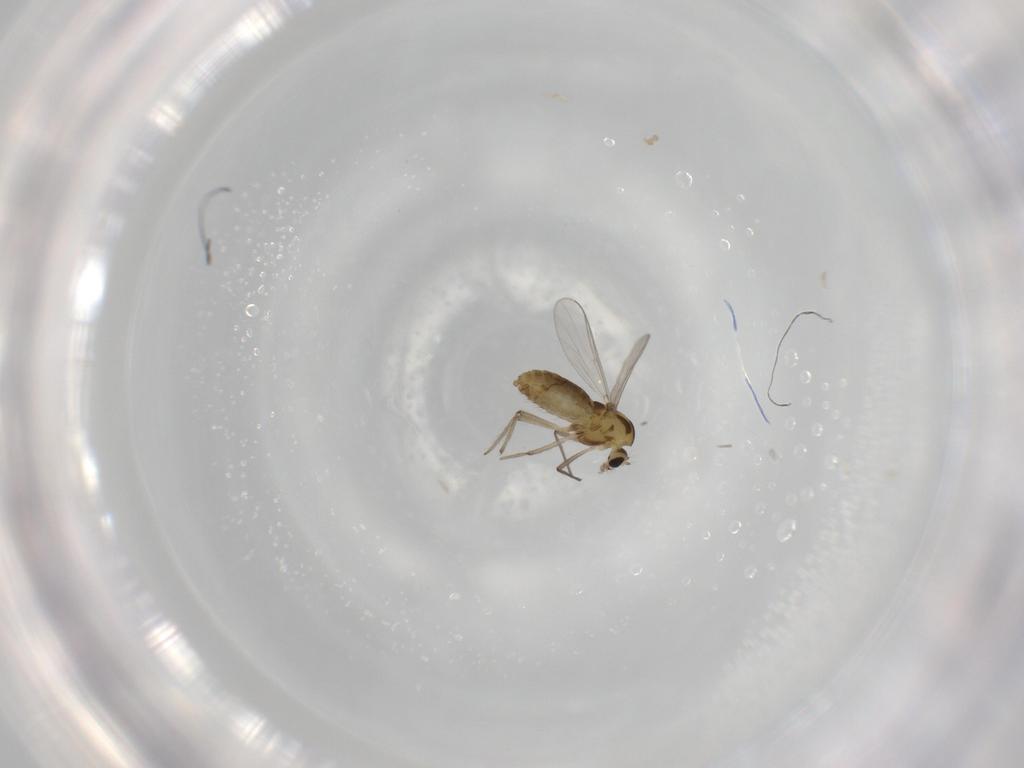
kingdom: Animalia
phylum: Arthropoda
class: Insecta
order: Diptera
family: Chironomidae
